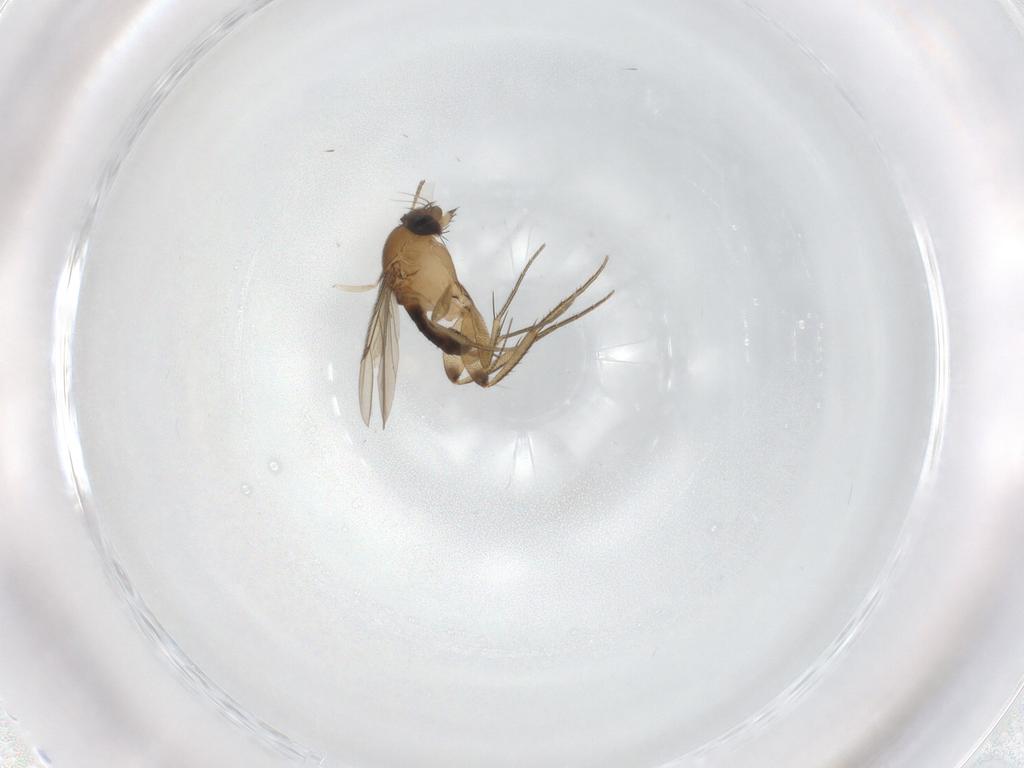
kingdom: Animalia
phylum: Arthropoda
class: Insecta
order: Diptera
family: Phoridae
